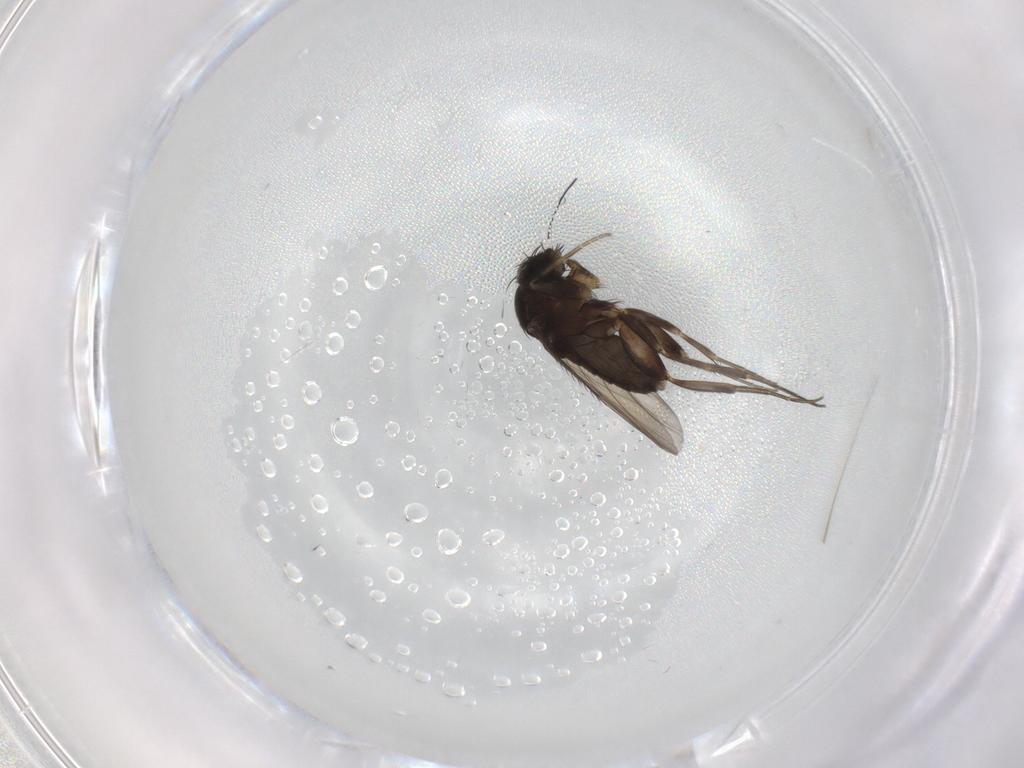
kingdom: Animalia
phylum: Arthropoda
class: Insecta
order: Diptera
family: Phoridae
